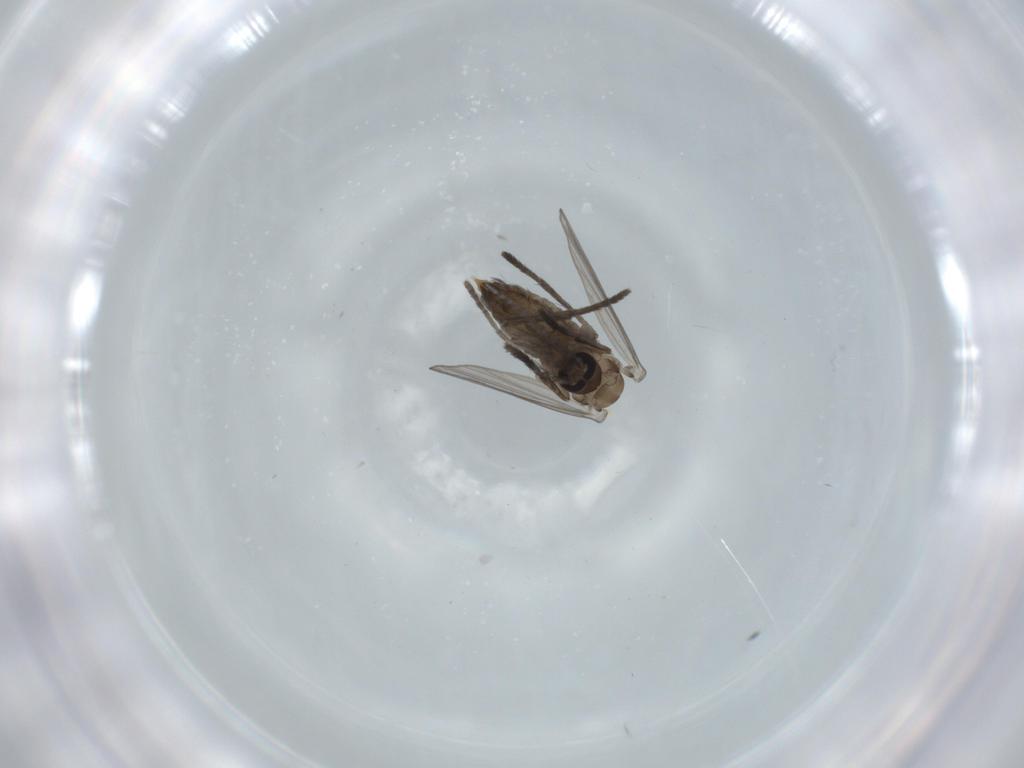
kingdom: Animalia
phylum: Arthropoda
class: Insecta
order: Diptera
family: Psychodidae
